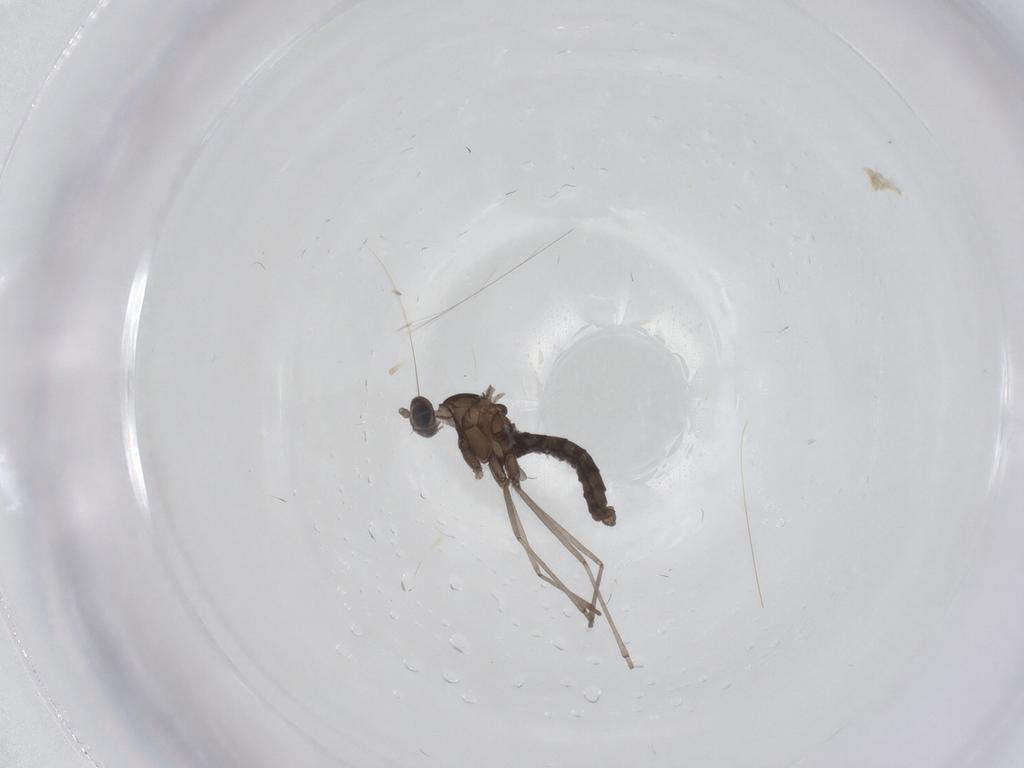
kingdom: Animalia
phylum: Arthropoda
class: Insecta
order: Diptera
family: Cecidomyiidae
